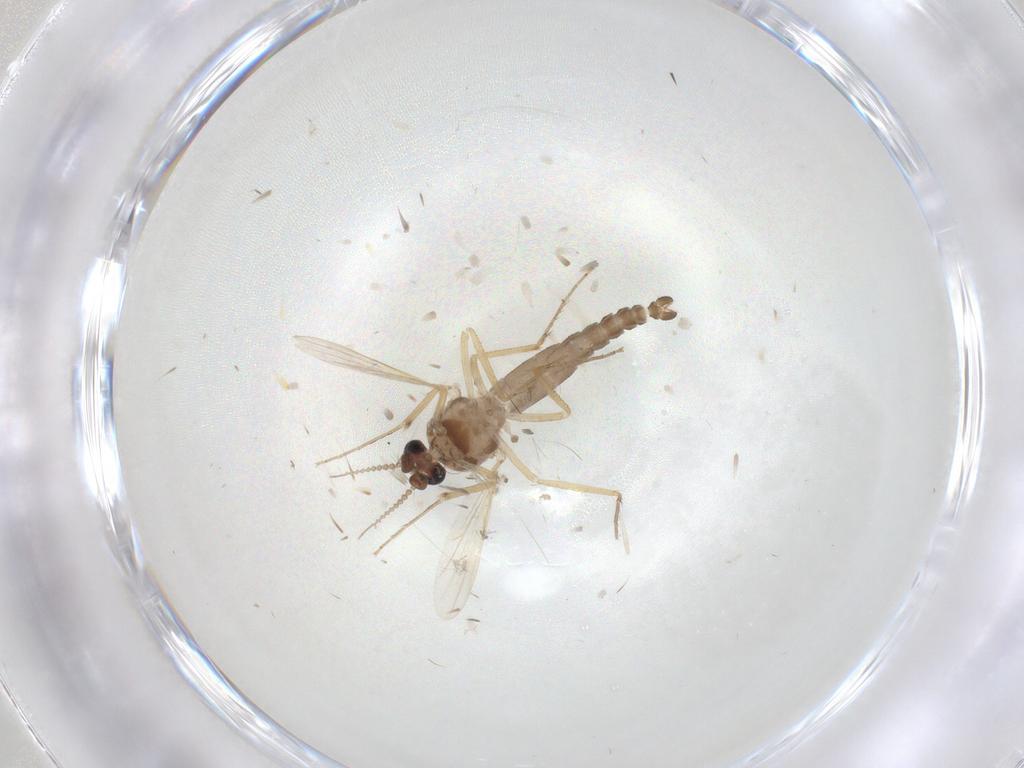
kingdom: Animalia
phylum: Arthropoda
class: Insecta
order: Diptera
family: Ceratopogonidae
